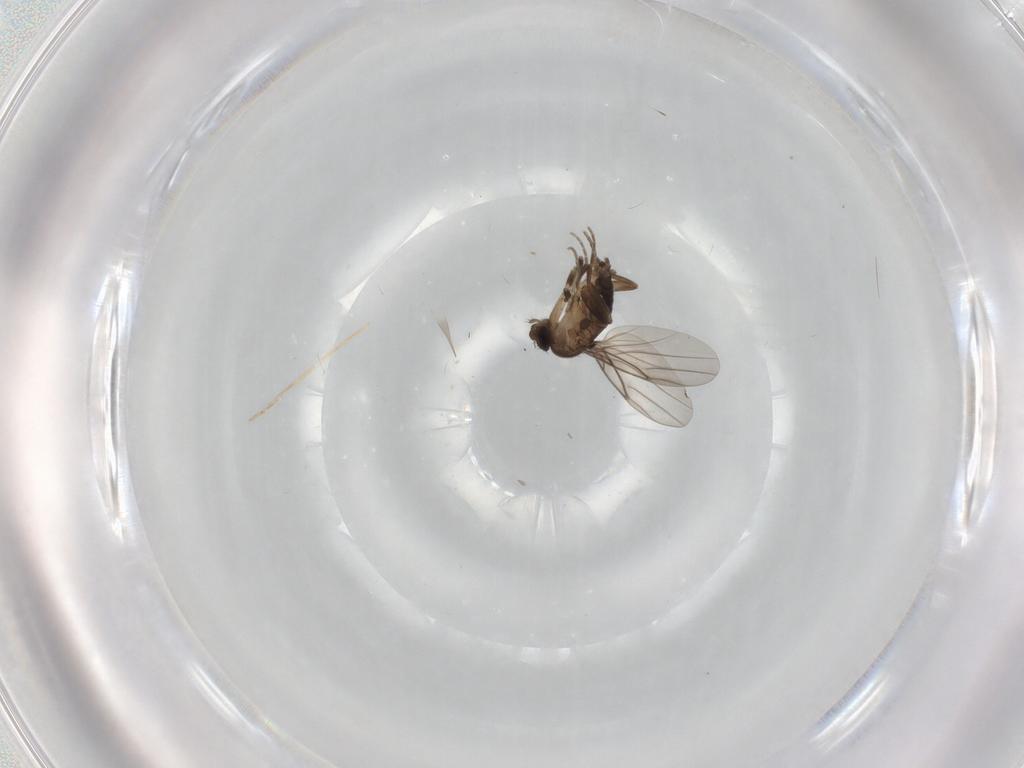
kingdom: Animalia
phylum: Arthropoda
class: Insecta
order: Diptera
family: Phoridae
